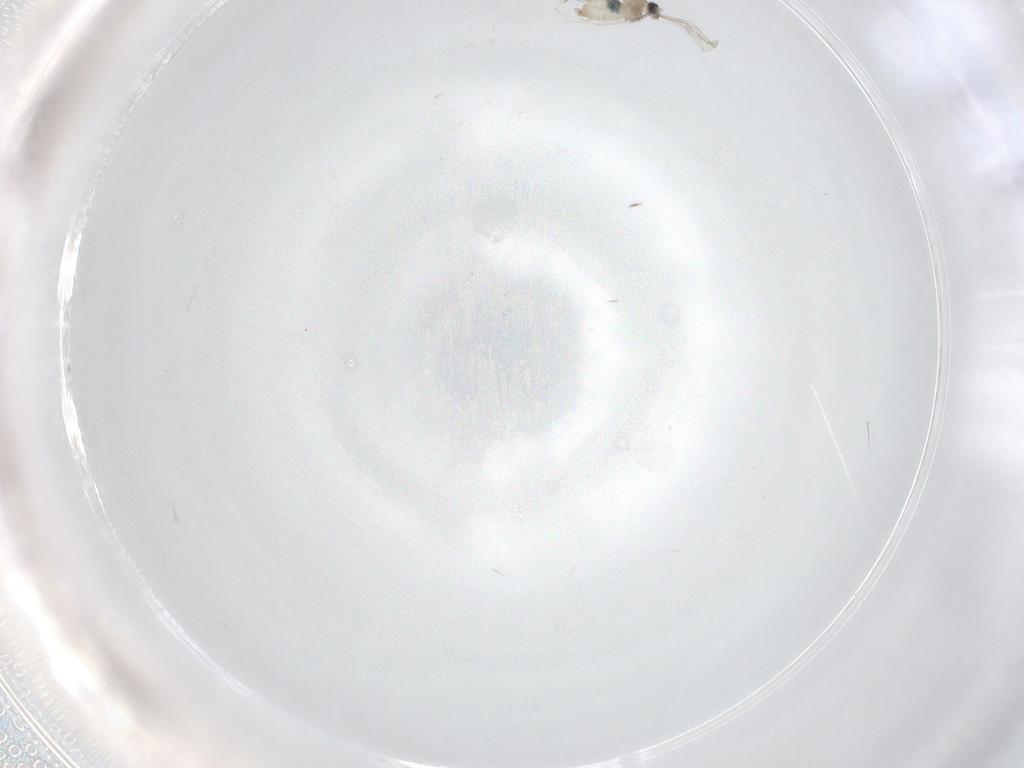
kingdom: Animalia
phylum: Arthropoda
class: Insecta
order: Diptera
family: Cecidomyiidae
